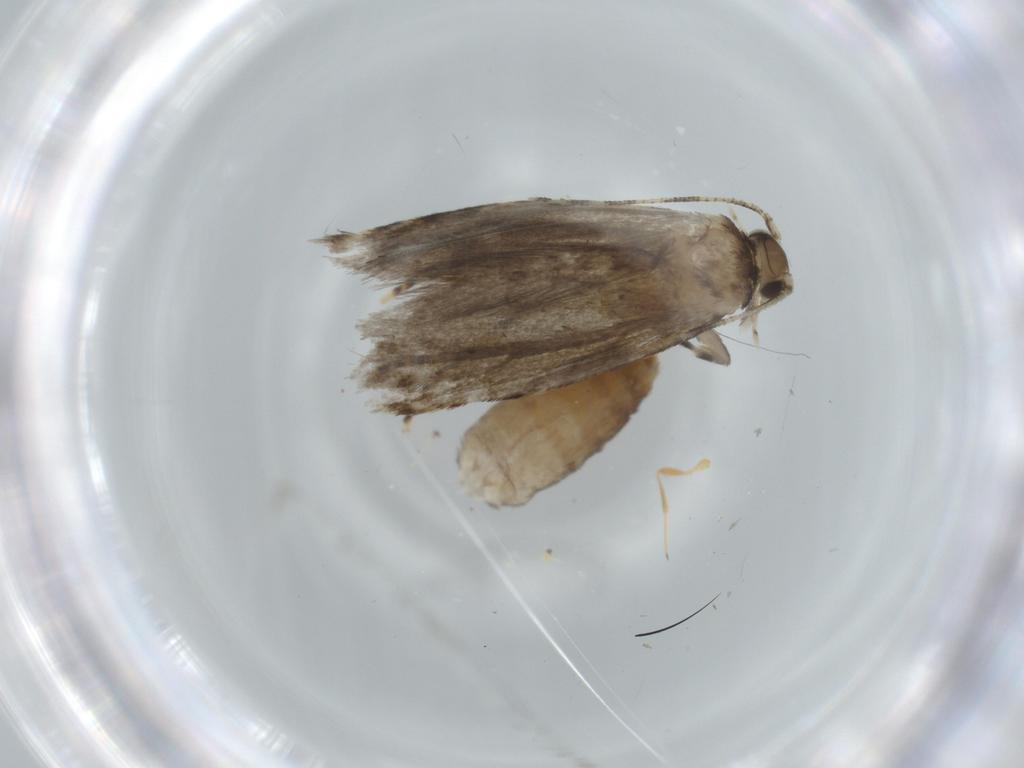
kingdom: Animalia
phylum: Arthropoda
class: Insecta
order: Lepidoptera
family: Tineidae
